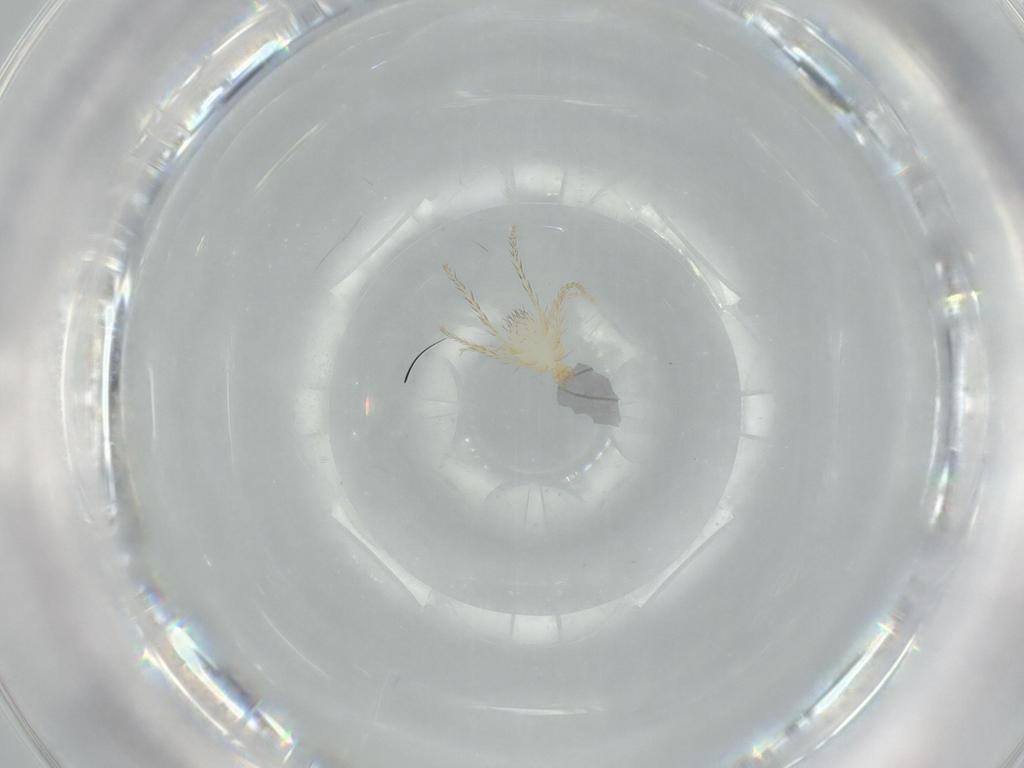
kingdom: Animalia
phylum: Arthropoda
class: Arachnida
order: Trombidiformes
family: Erythraeidae
